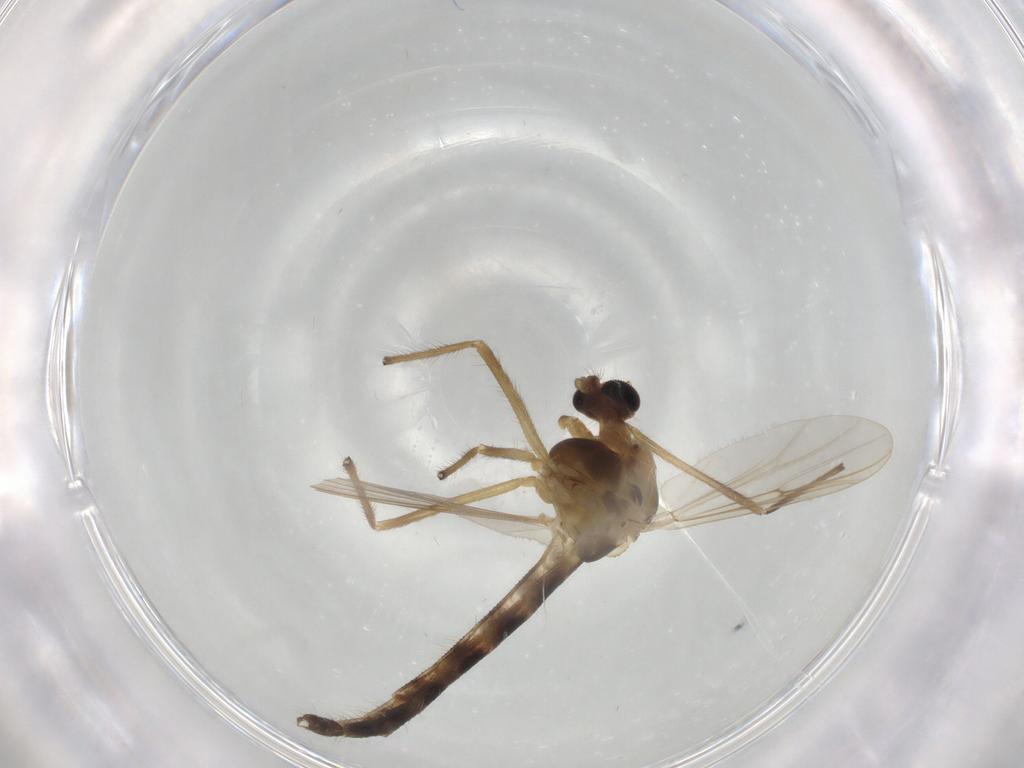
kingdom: Animalia
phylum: Arthropoda
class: Insecta
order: Diptera
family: Chironomidae
